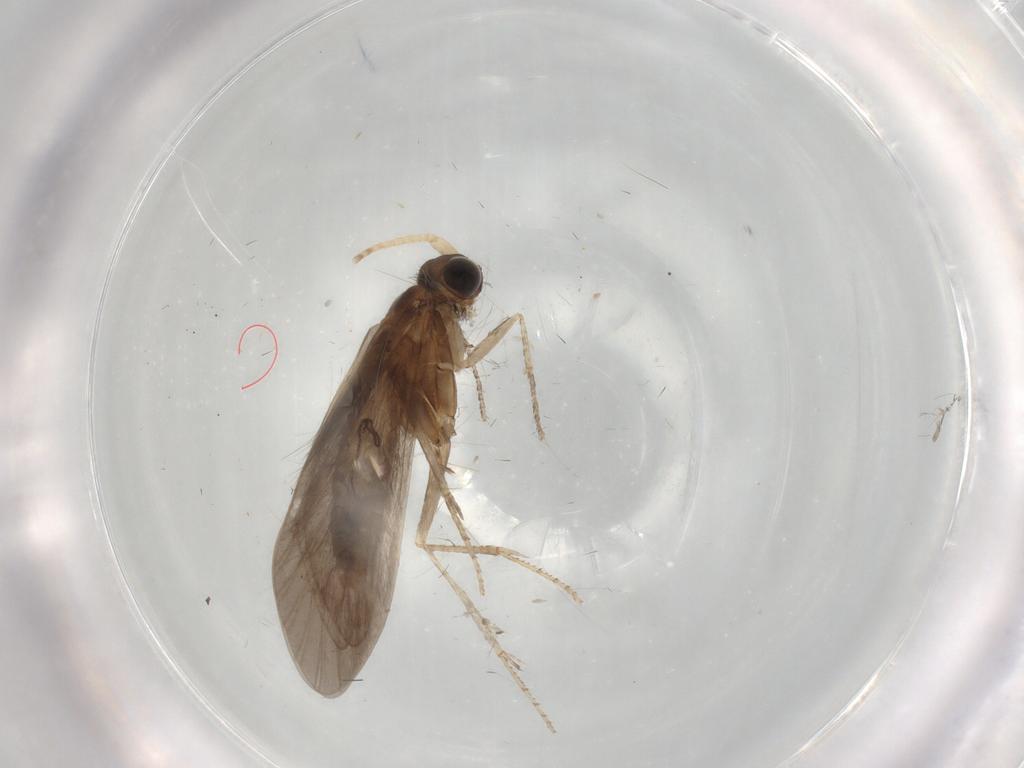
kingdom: Animalia
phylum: Arthropoda
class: Insecta
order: Trichoptera
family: Helicopsychidae
